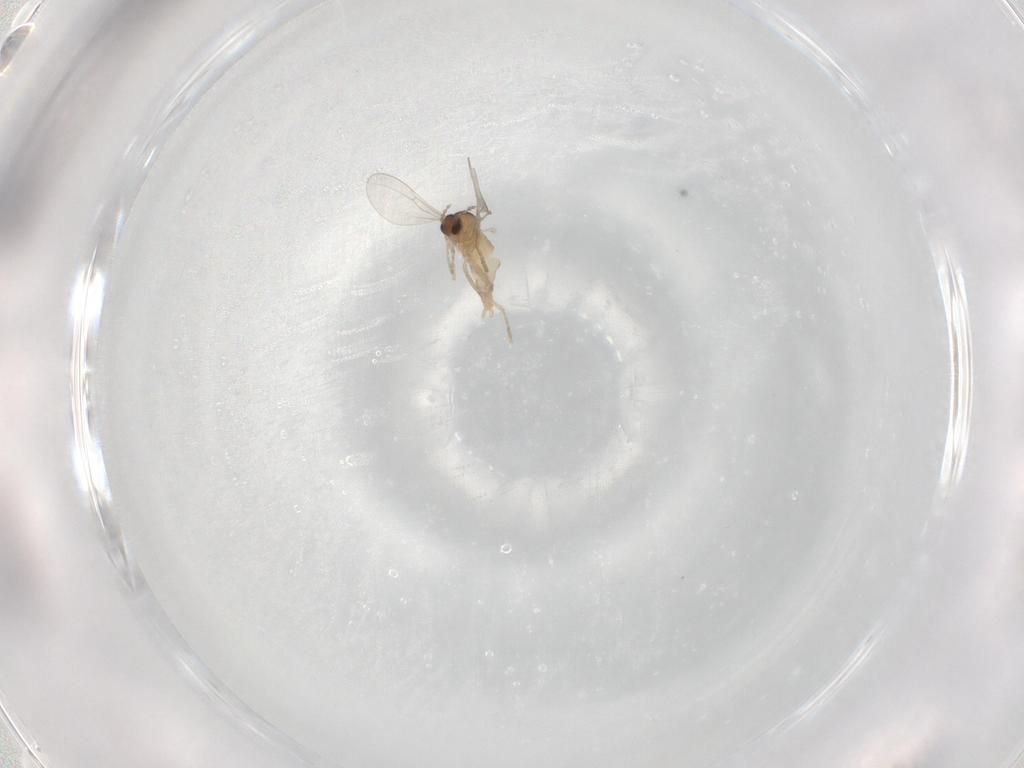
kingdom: Animalia
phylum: Arthropoda
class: Insecta
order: Diptera
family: Cecidomyiidae
